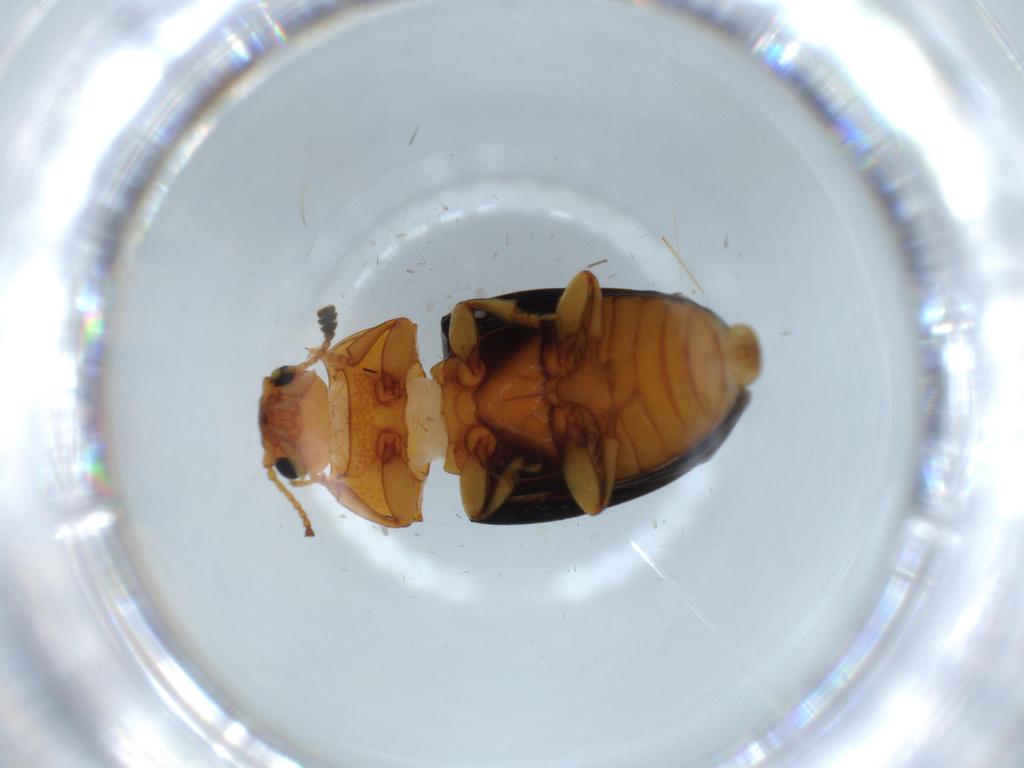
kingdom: Animalia
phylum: Arthropoda
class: Insecta
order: Coleoptera
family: Erotylidae
